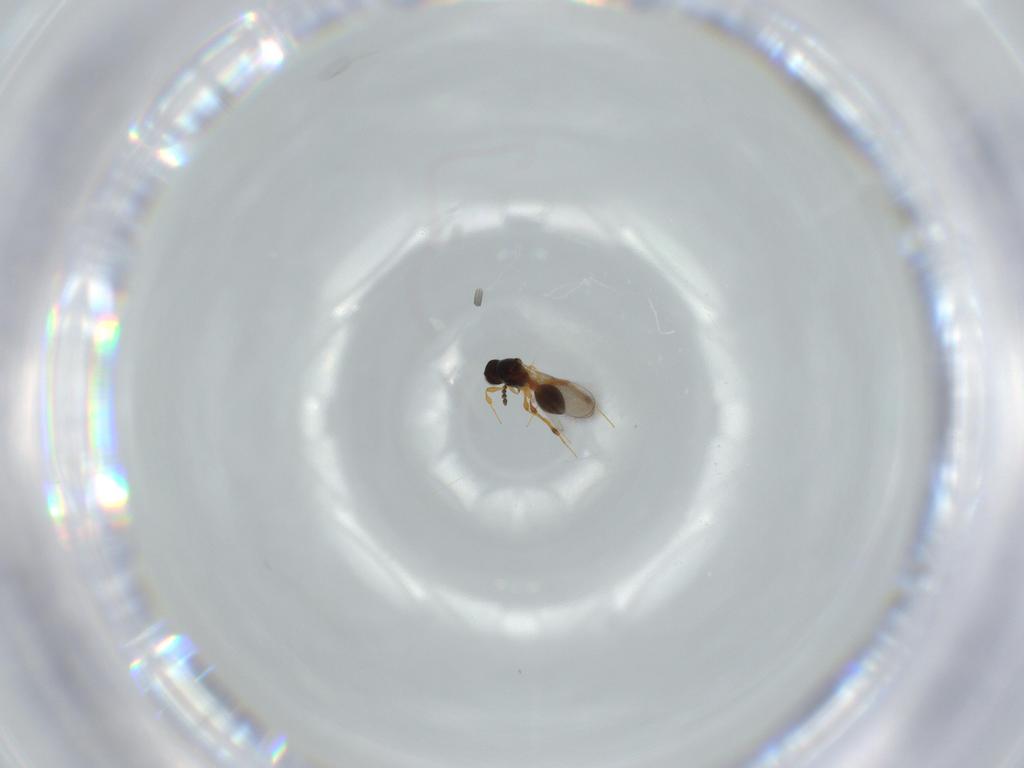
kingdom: Animalia
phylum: Arthropoda
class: Insecta
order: Hymenoptera
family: Platygastridae
